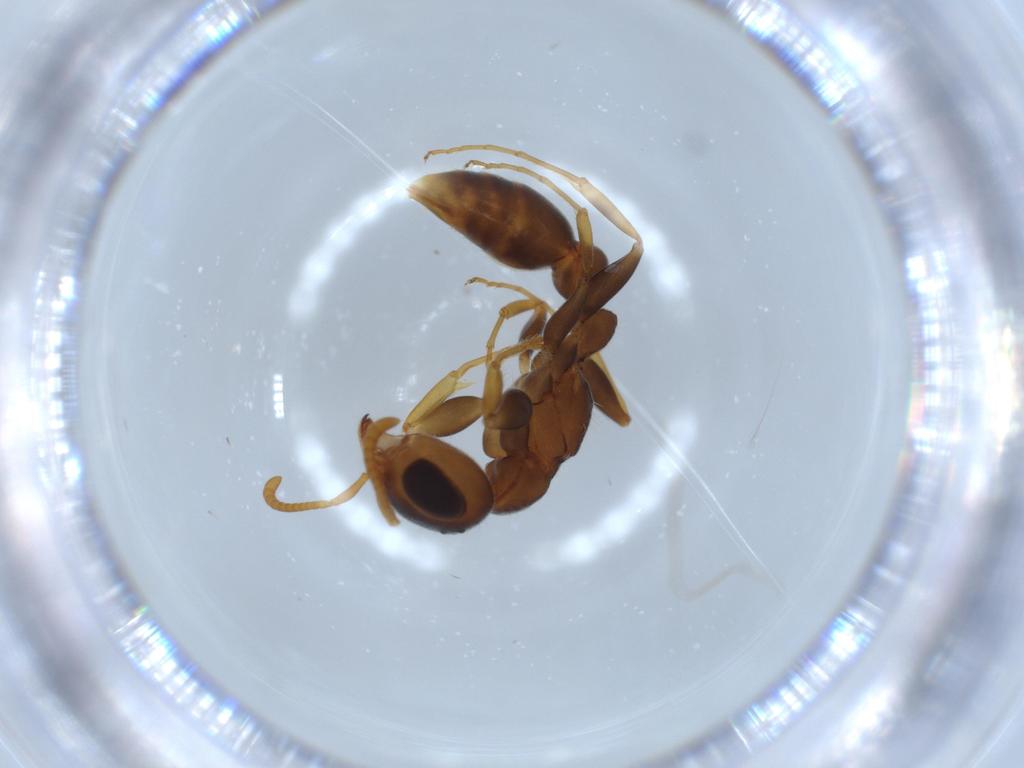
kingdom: Animalia
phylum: Arthropoda
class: Insecta
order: Hymenoptera
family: Formicidae
